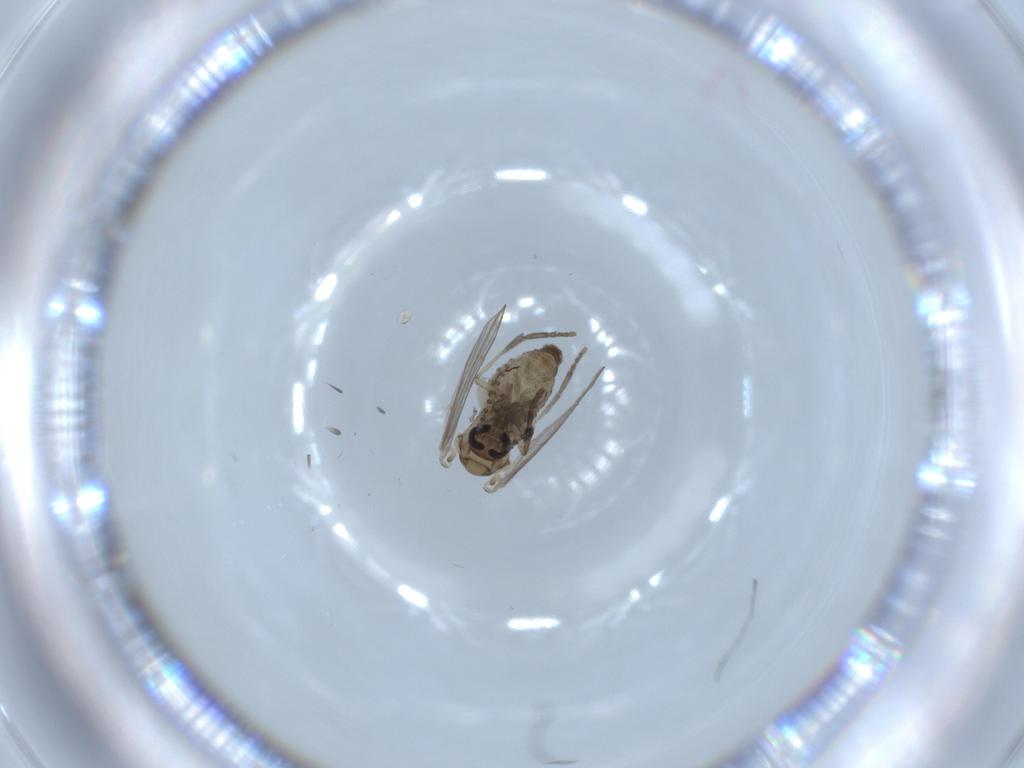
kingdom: Animalia
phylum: Arthropoda
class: Insecta
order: Diptera
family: Psychodidae
